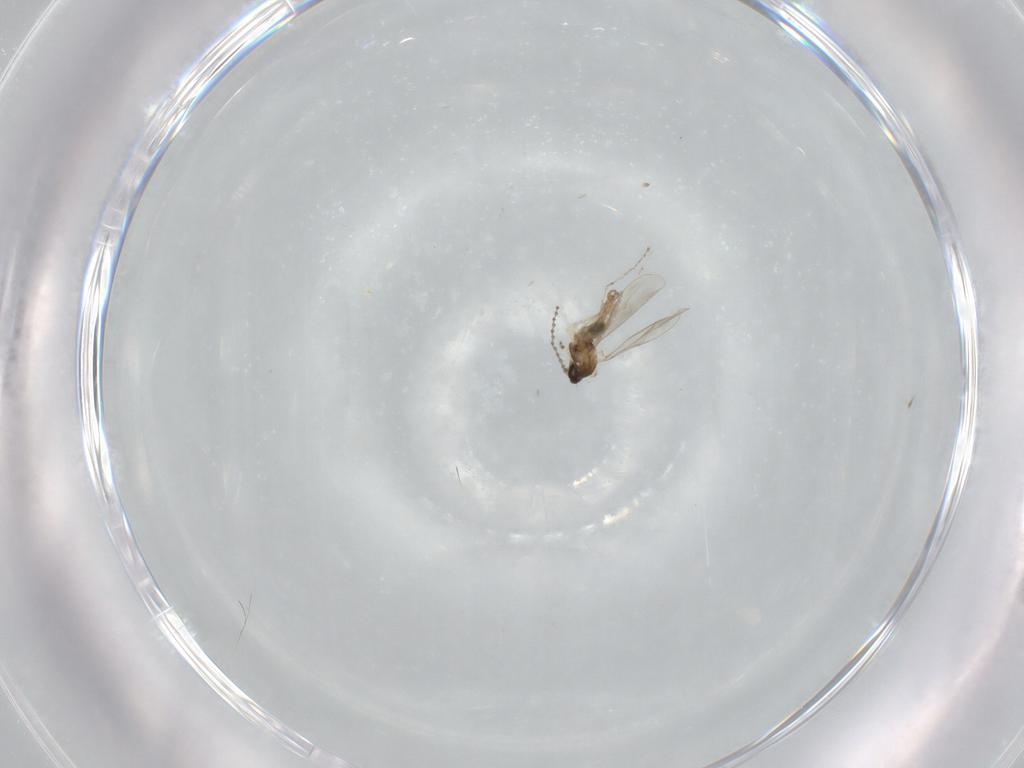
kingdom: Animalia
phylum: Arthropoda
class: Insecta
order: Diptera
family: Cecidomyiidae
